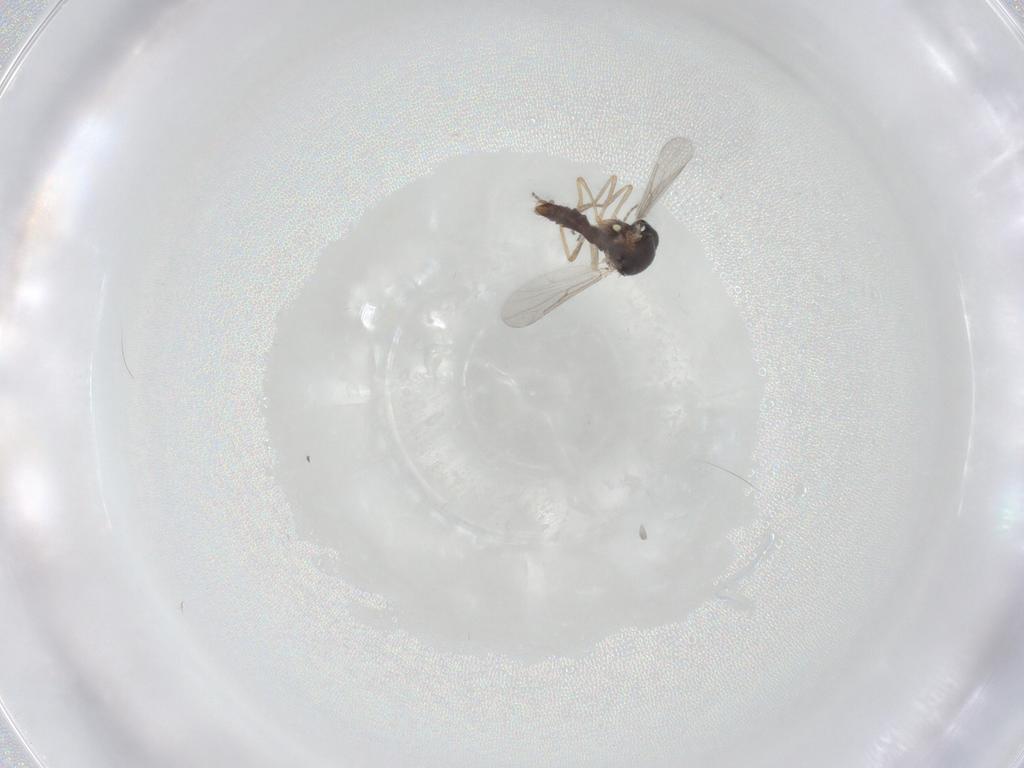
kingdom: Animalia
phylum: Arthropoda
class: Insecta
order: Diptera
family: Ceratopogonidae
